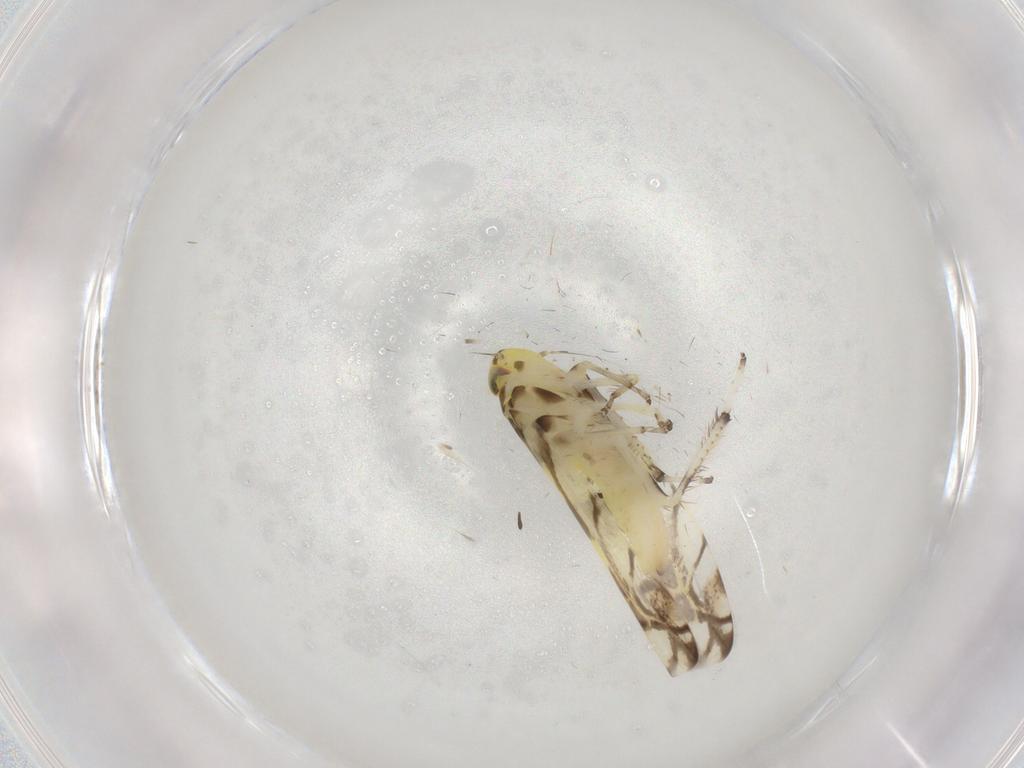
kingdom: Animalia
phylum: Arthropoda
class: Insecta
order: Hemiptera
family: Cicadellidae
